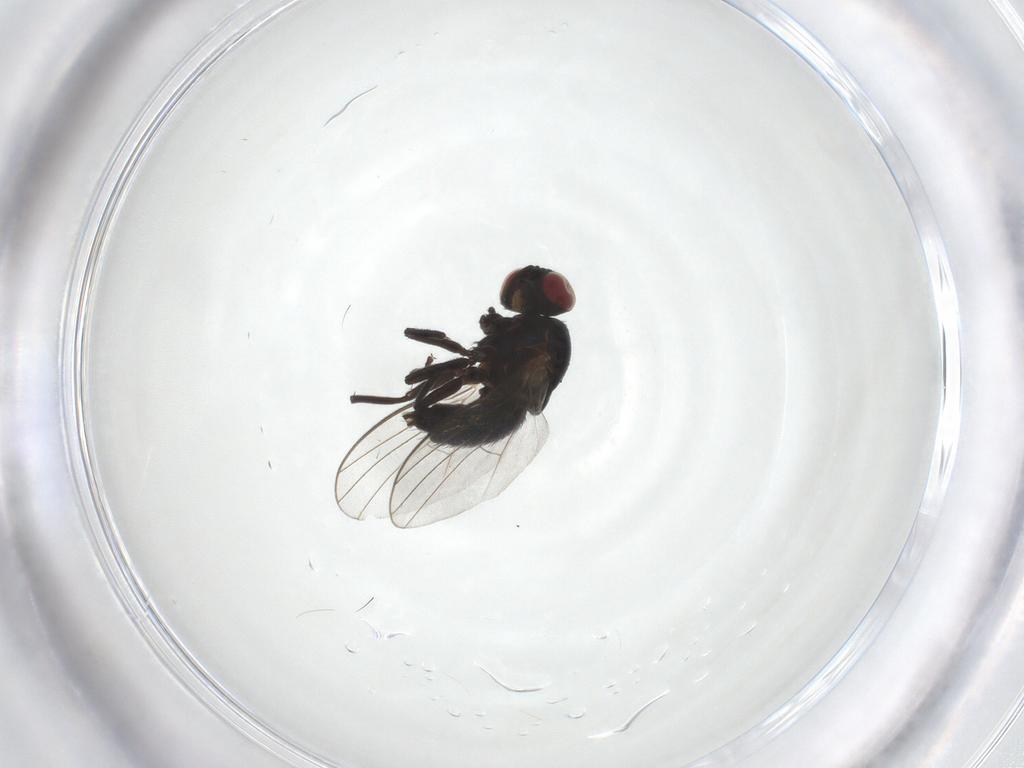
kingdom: Animalia
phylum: Arthropoda
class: Insecta
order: Diptera
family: Agromyzidae
